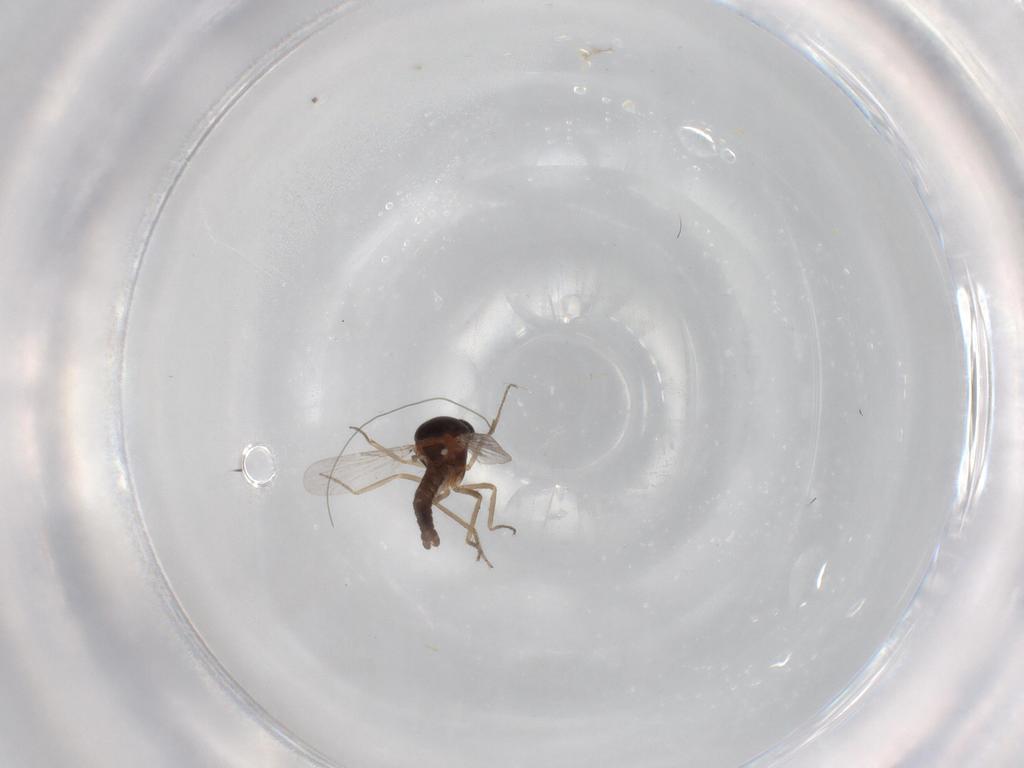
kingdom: Animalia
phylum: Arthropoda
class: Insecta
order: Diptera
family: Ceratopogonidae
